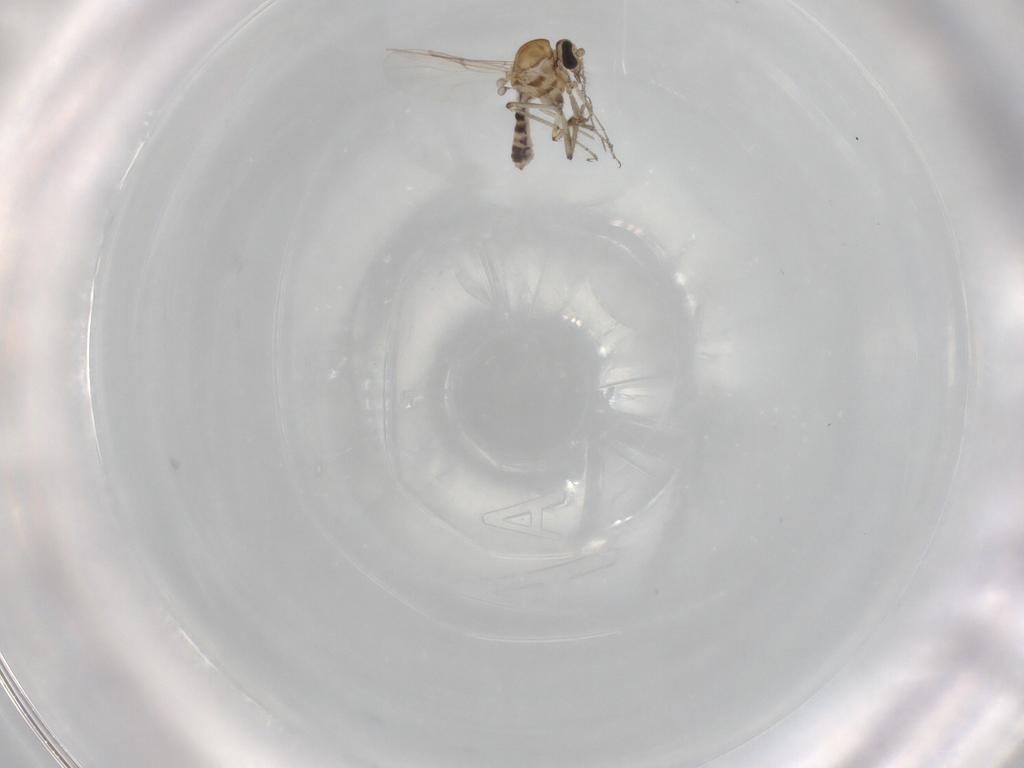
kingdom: Animalia
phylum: Arthropoda
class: Insecta
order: Diptera
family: Ceratopogonidae
